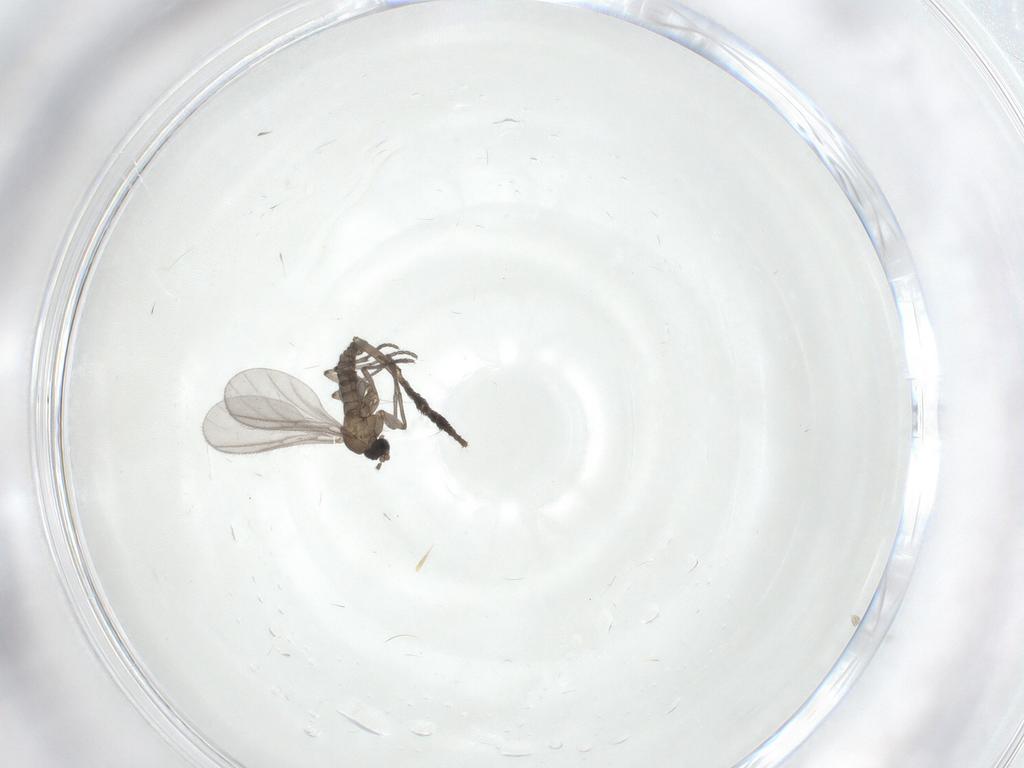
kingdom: Animalia
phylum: Arthropoda
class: Insecta
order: Diptera
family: Sciaridae
